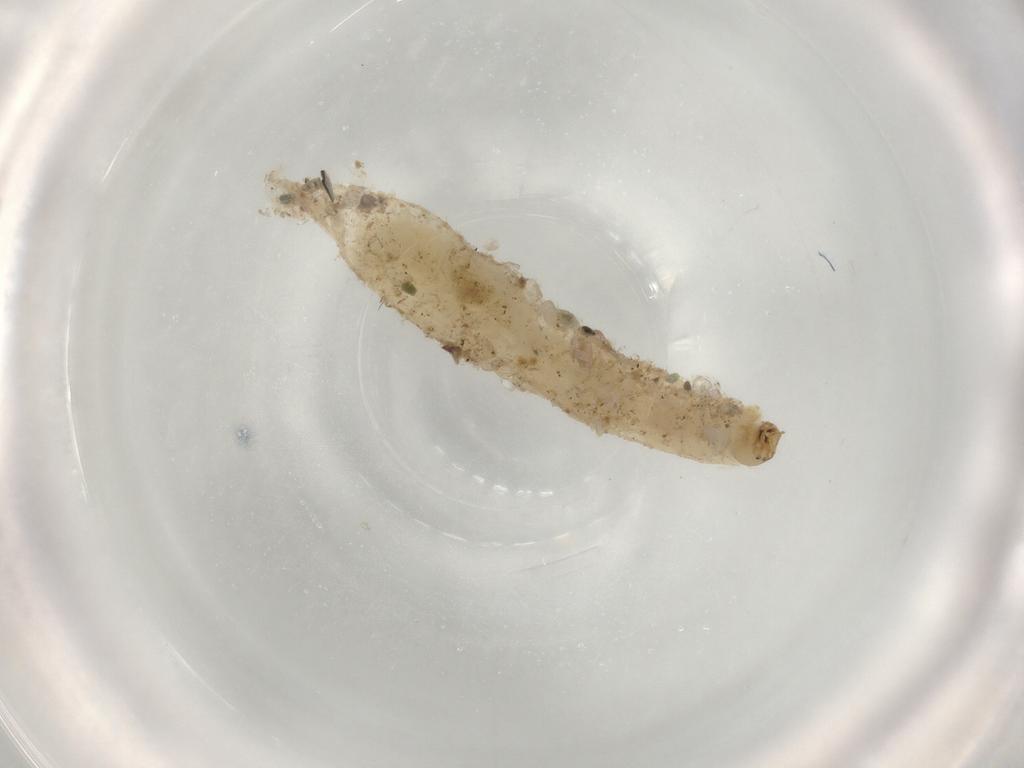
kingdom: Animalia
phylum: Arthropoda
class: Insecta
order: Diptera
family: Chironomidae
